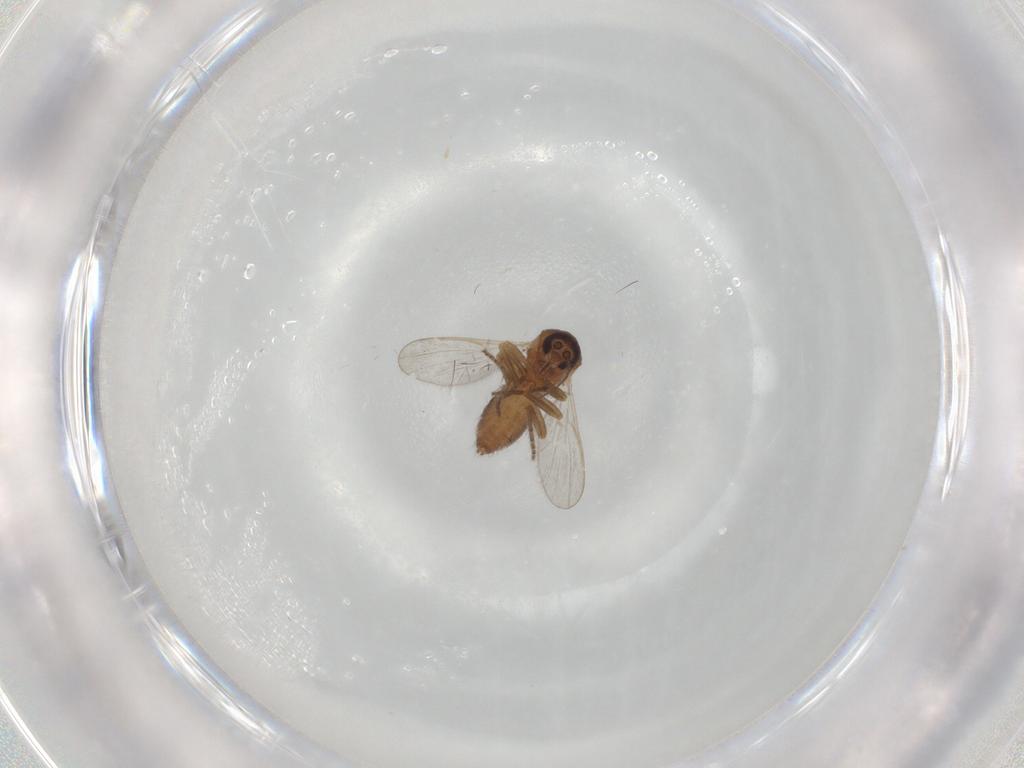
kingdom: Animalia
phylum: Arthropoda
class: Insecta
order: Diptera
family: Ceratopogonidae
